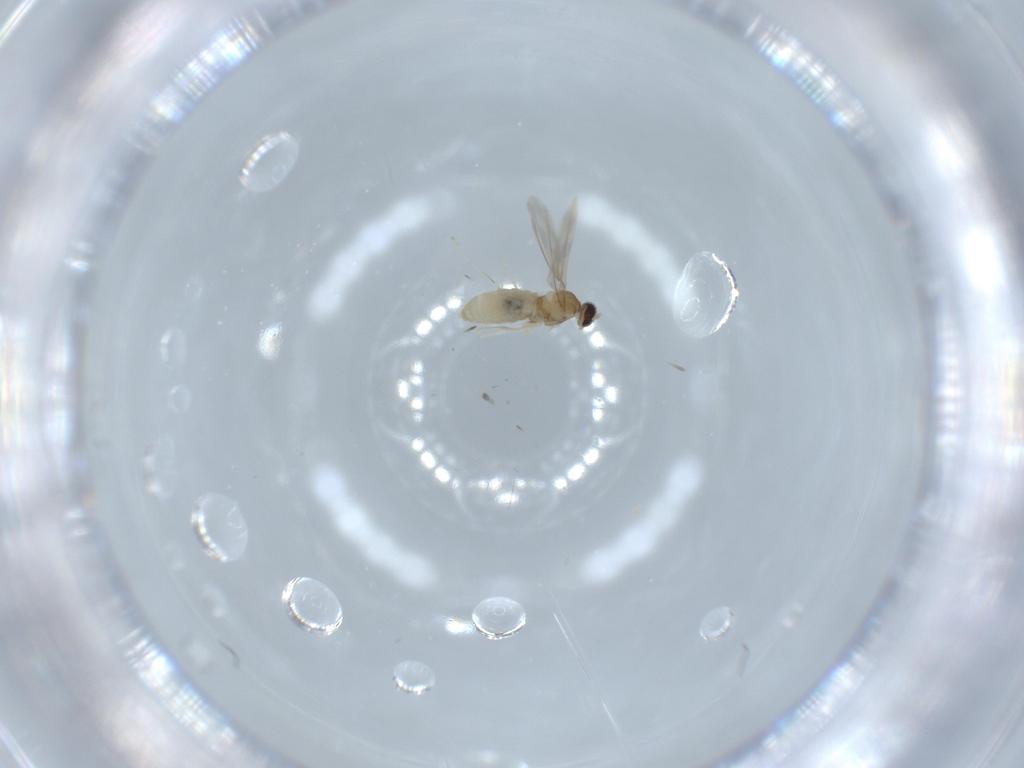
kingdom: Animalia
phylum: Arthropoda
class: Insecta
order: Diptera
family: Cecidomyiidae
